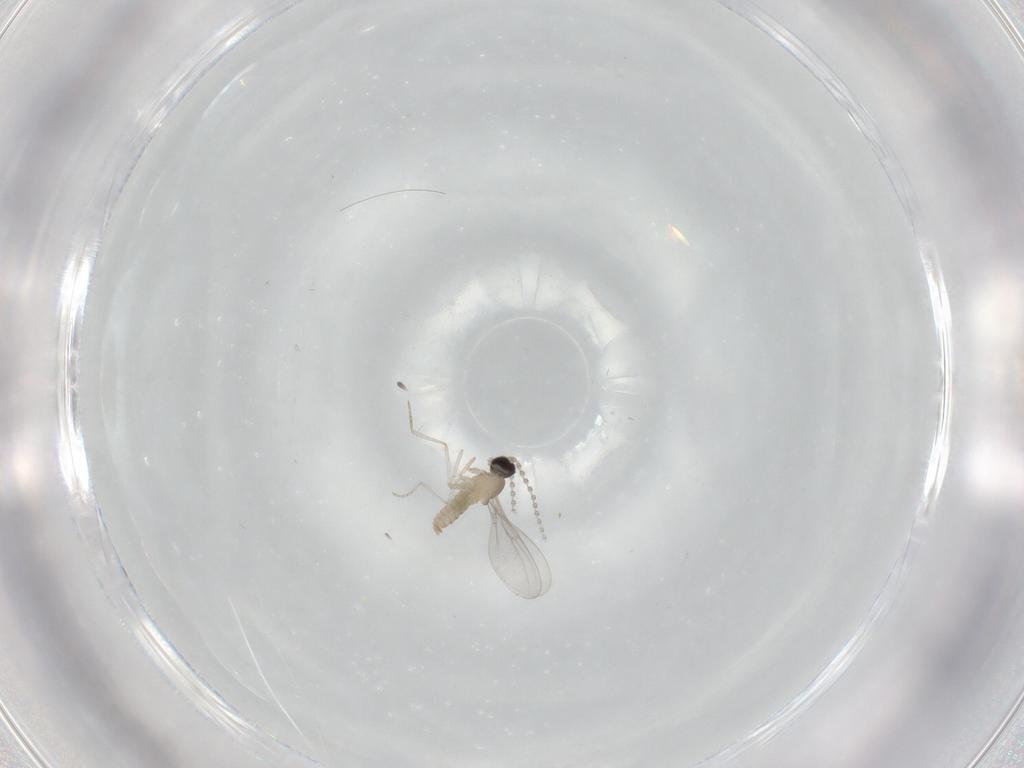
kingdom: Animalia
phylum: Arthropoda
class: Insecta
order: Diptera
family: Cecidomyiidae
